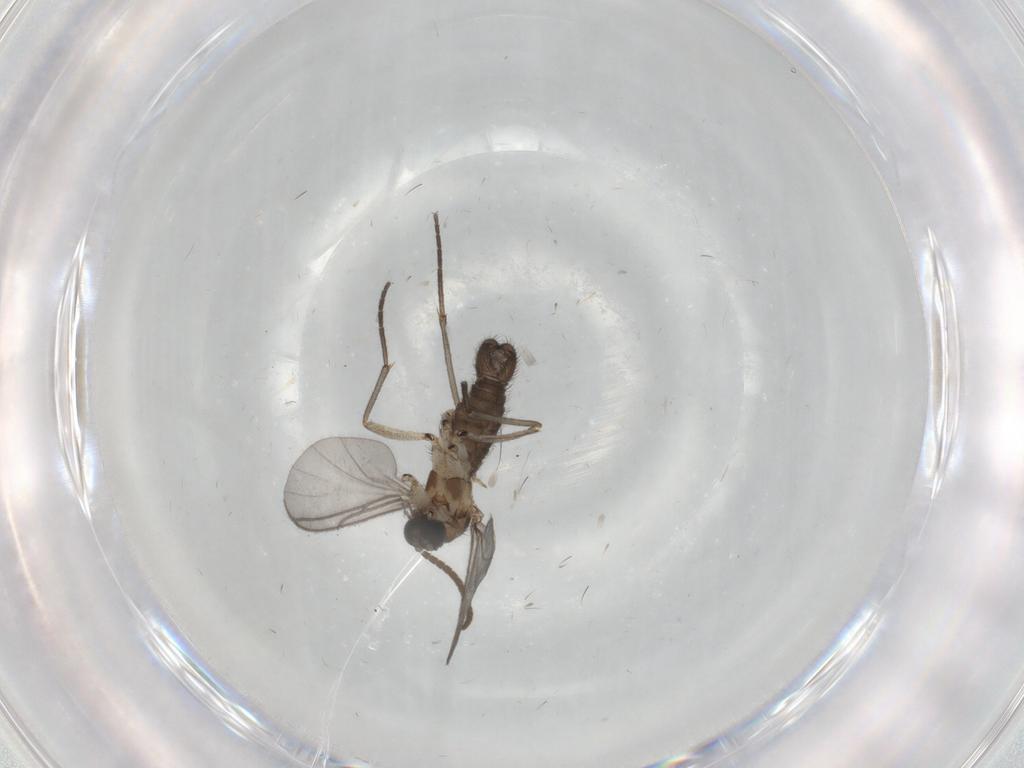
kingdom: Animalia
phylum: Arthropoda
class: Insecta
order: Diptera
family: Sciaridae
